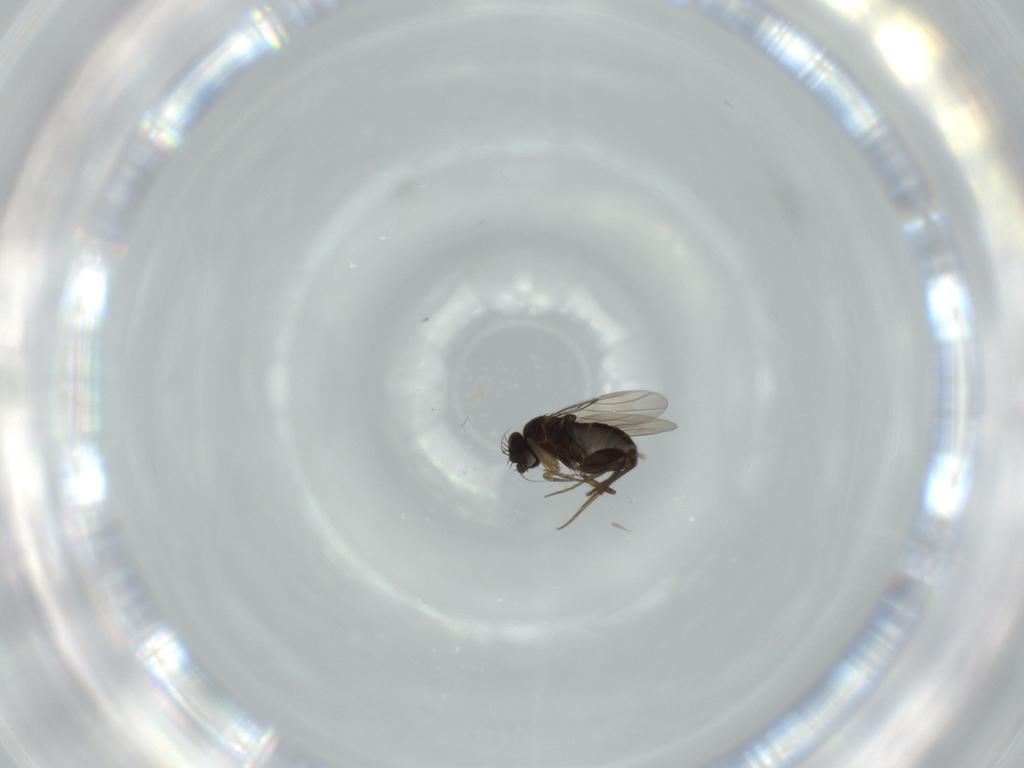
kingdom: Animalia
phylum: Arthropoda
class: Insecta
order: Diptera
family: Phoridae
